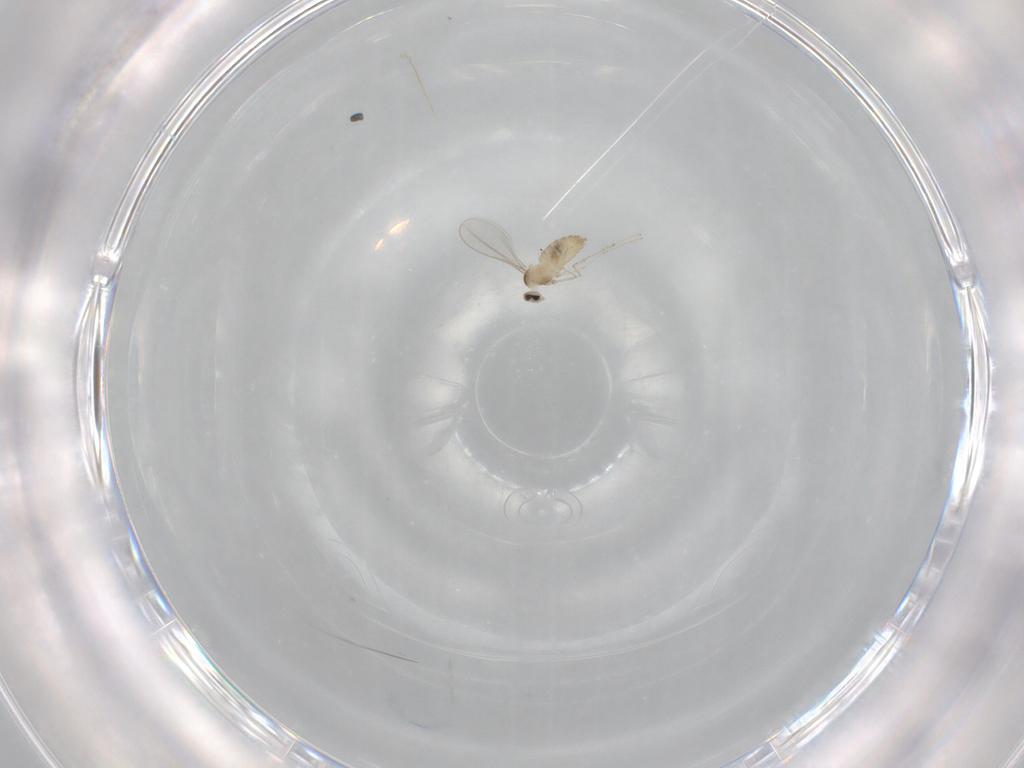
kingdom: Animalia
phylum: Arthropoda
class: Insecta
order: Diptera
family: Cecidomyiidae
